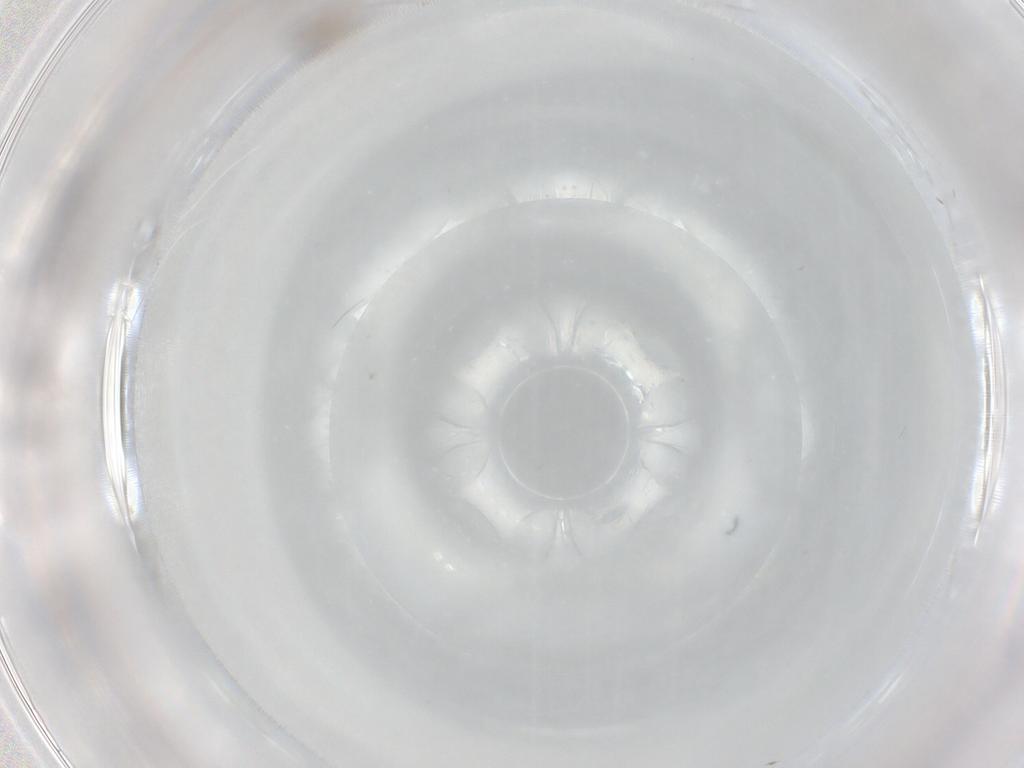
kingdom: Animalia
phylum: Arthropoda
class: Insecta
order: Diptera
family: Cecidomyiidae
